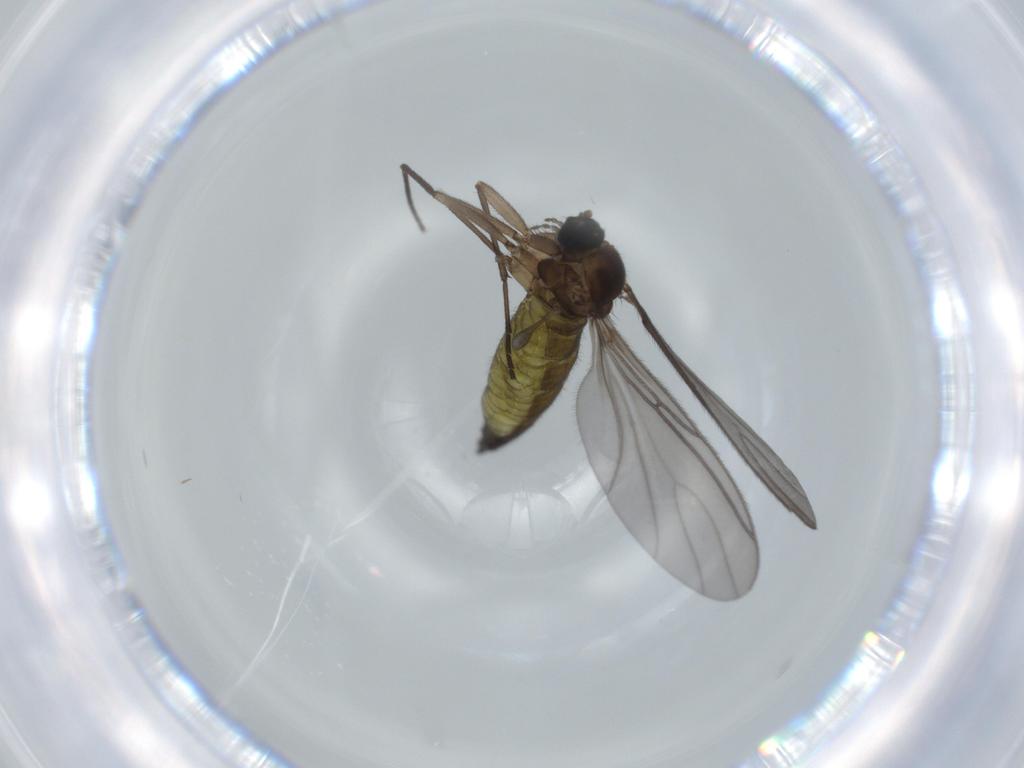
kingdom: Animalia
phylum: Arthropoda
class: Insecta
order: Diptera
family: Sciaridae
